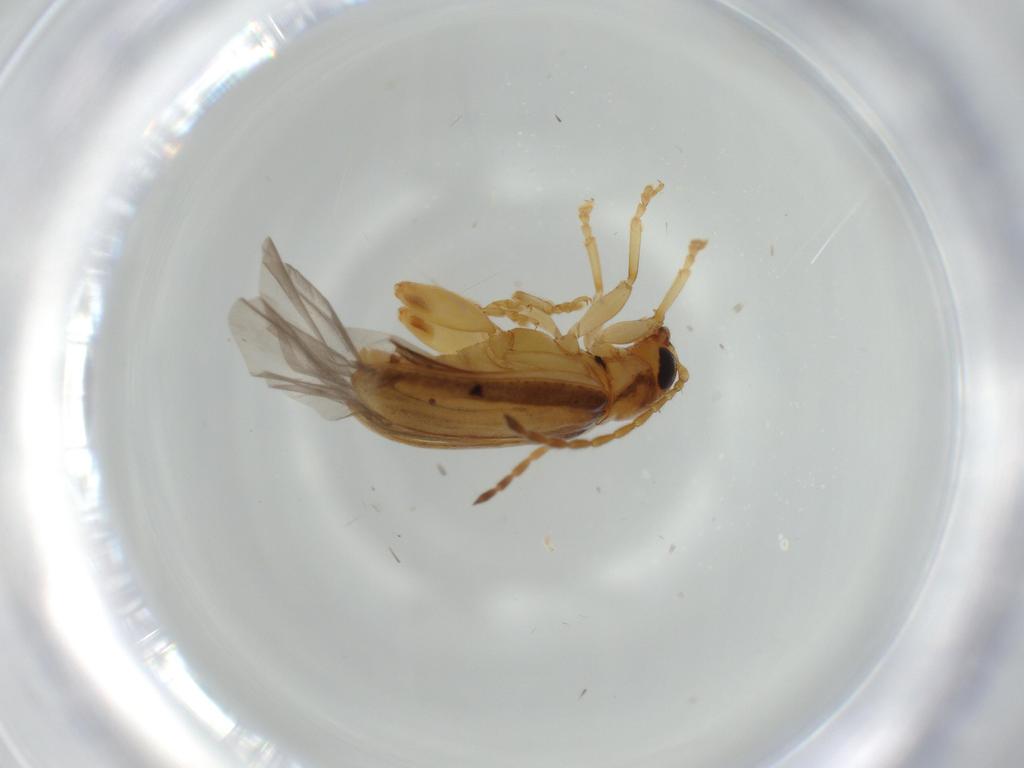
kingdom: Animalia
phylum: Arthropoda
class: Insecta
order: Coleoptera
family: Chrysomelidae
